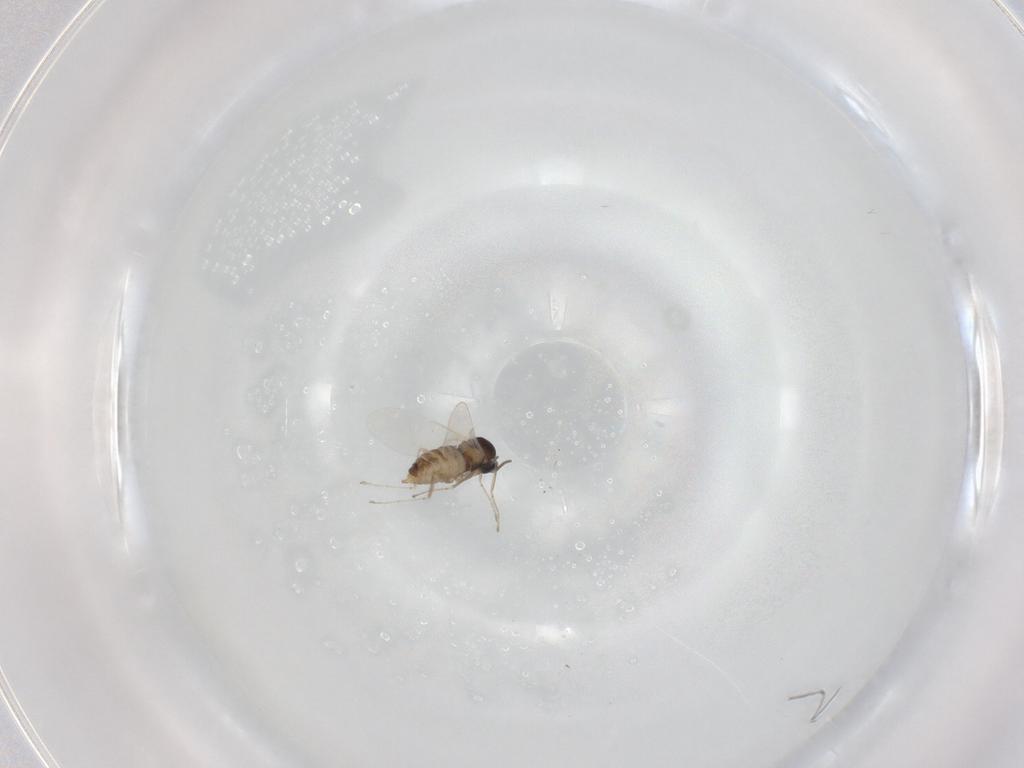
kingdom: Animalia
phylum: Arthropoda
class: Insecta
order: Diptera
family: Cecidomyiidae
